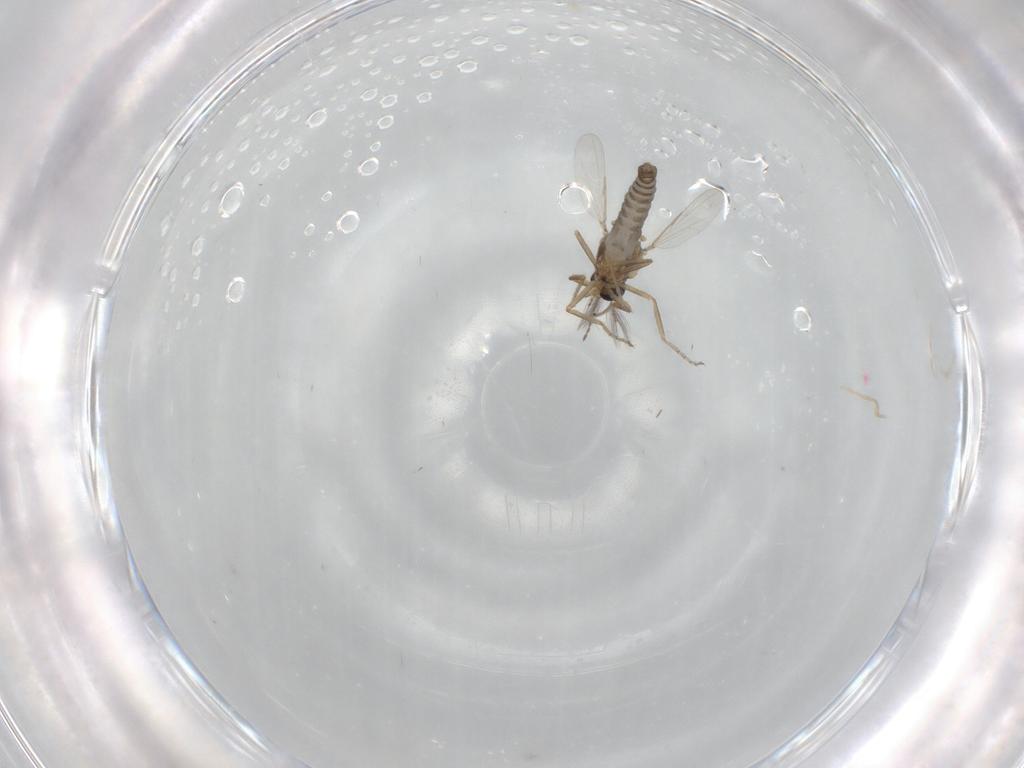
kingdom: Animalia
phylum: Arthropoda
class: Insecta
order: Diptera
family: Ceratopogonidae
